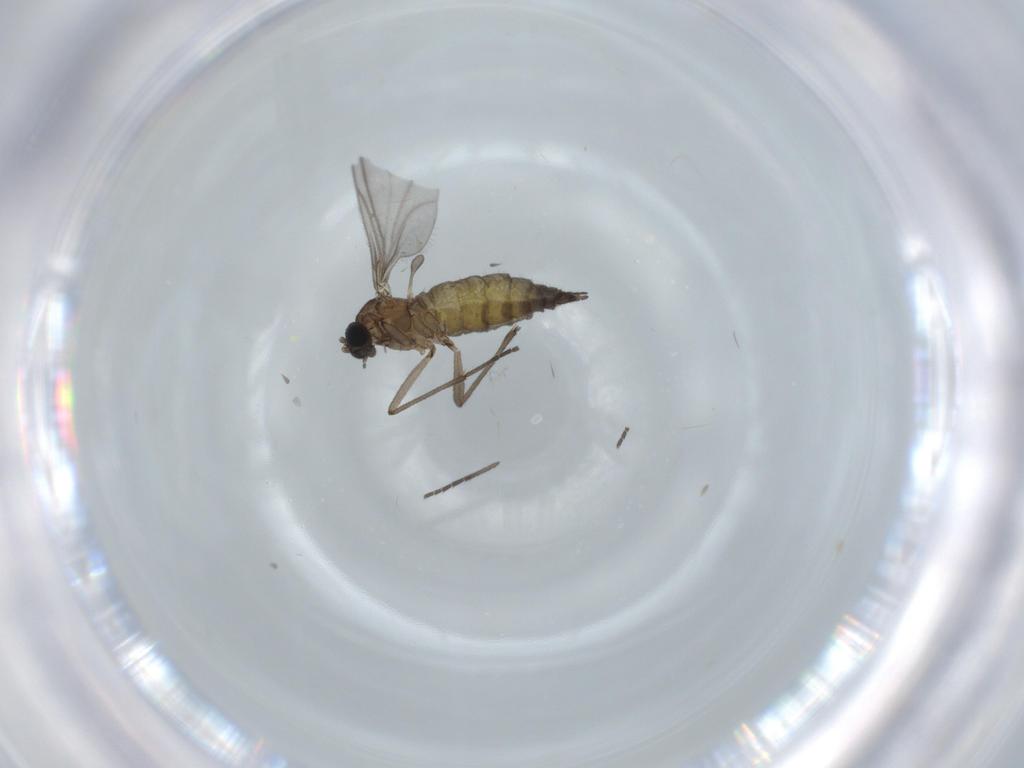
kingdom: Animalia
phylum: Arthropoda
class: Insecta
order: Diptera
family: Sciaridae
